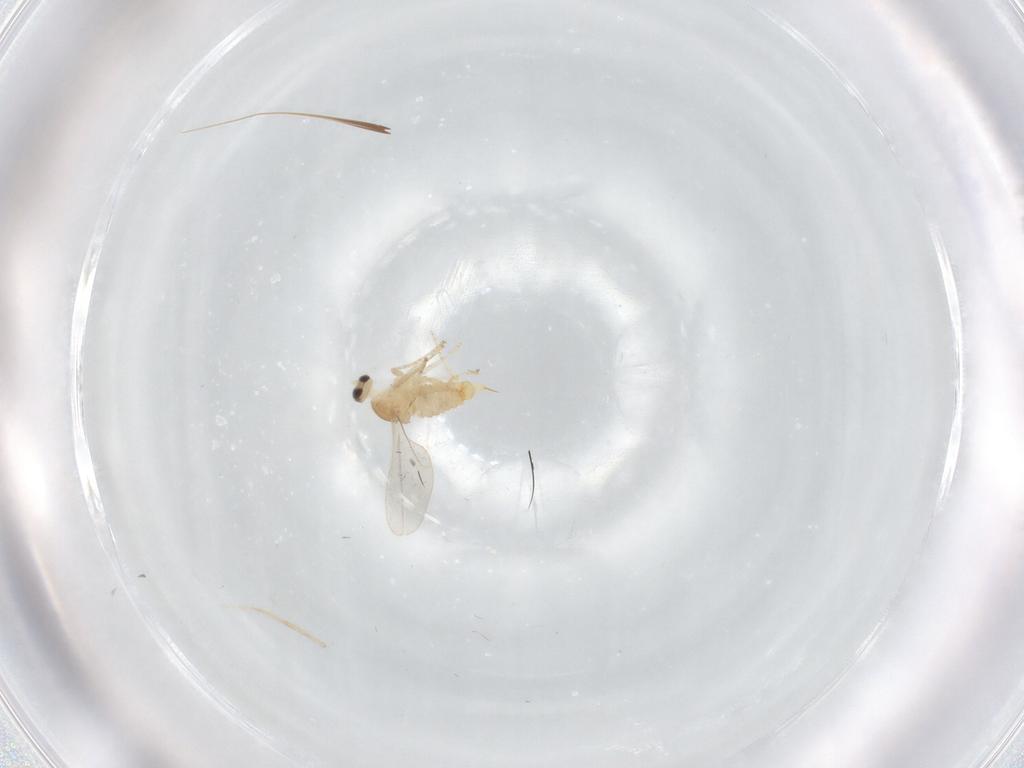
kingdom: Animalia
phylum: Arthropoda
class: Insecta
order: Diptera
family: Cecidomyiidae
